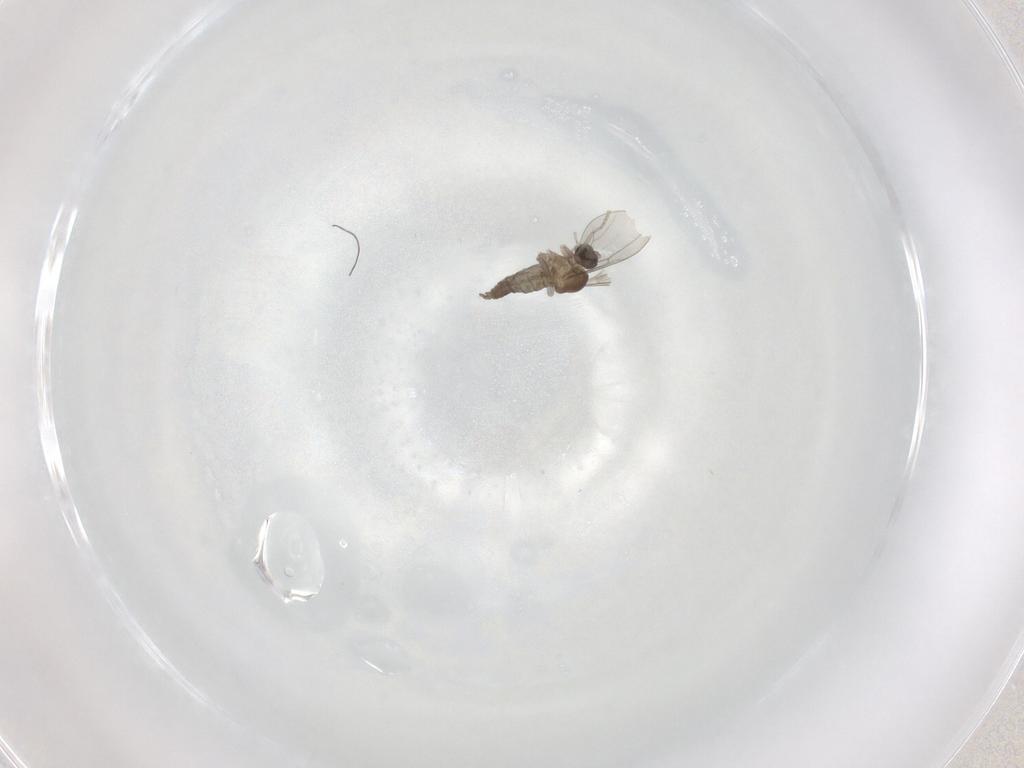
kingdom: Animalia
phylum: Arthropoda
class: Insecta
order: Diptera
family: Cecidomyiidae
